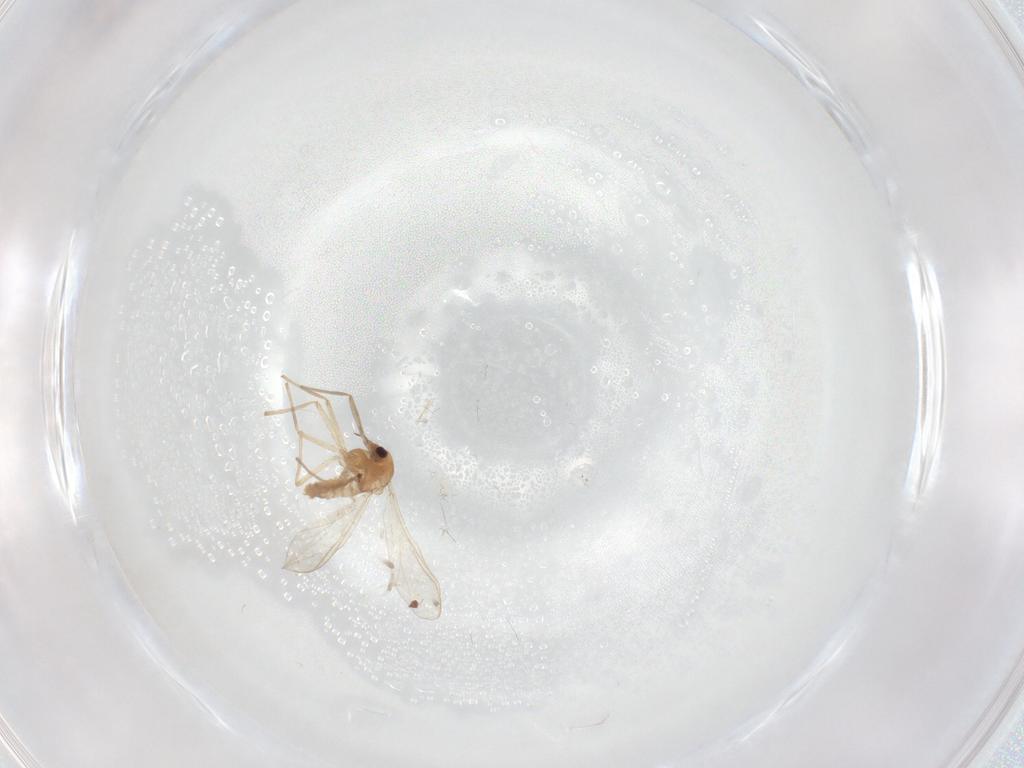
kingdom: Animalia
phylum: Arthropoda
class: Insecta
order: Diptera
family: Chironomidae
